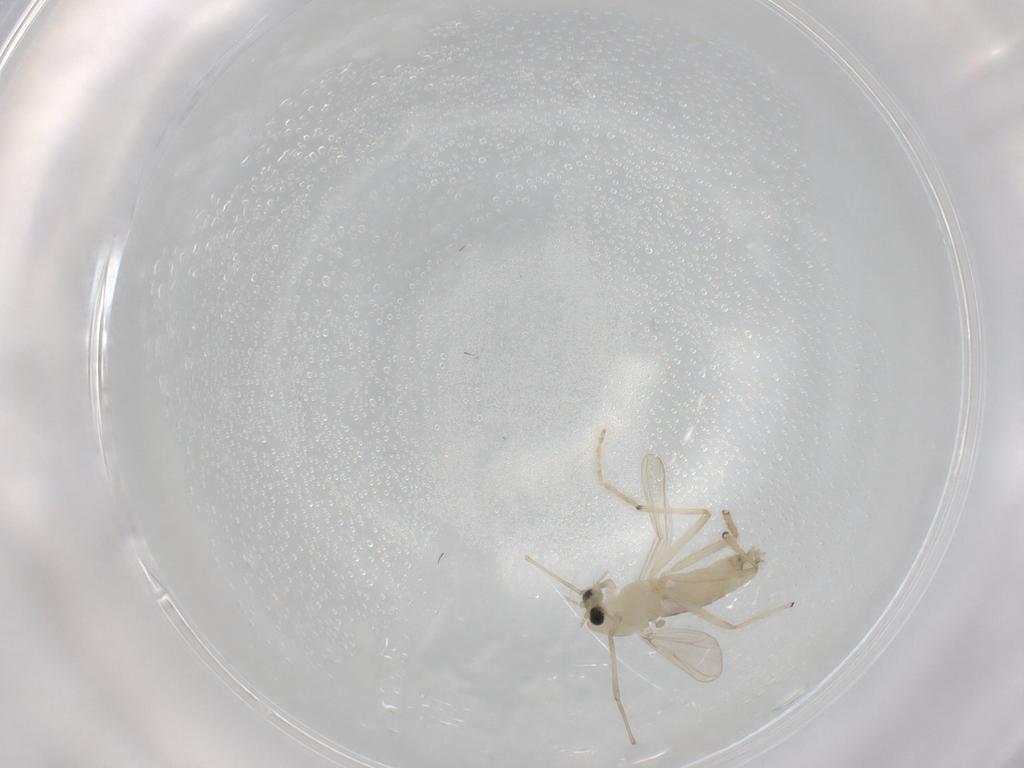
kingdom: Animalia
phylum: Arthropoda
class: Insecta
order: Diptera
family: Chironomidae
